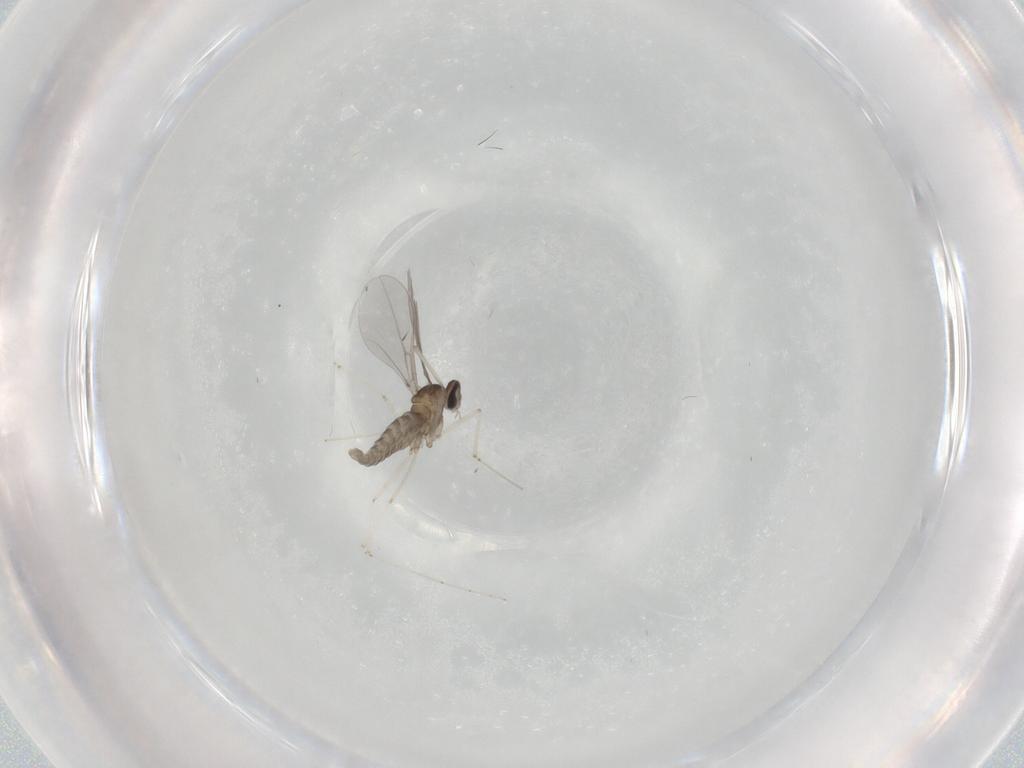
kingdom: Animalia
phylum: Arthropoda
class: Insecta
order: Diptera
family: Cecidomyiidae
